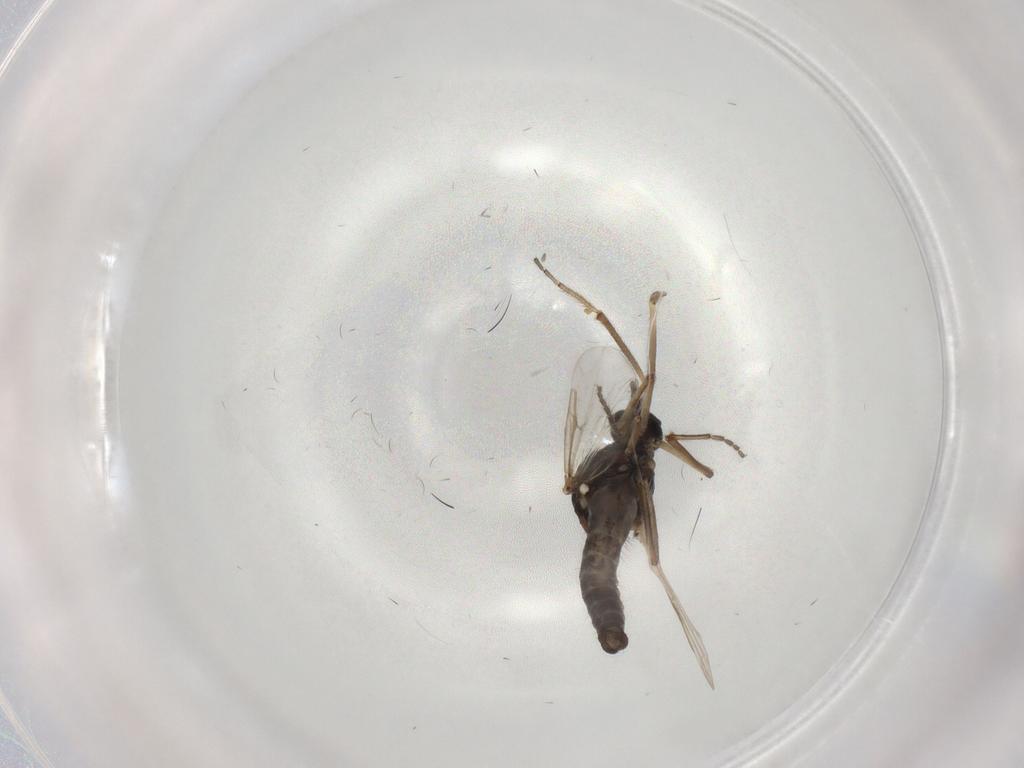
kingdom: Animalia
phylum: Arthropoda
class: Insecta
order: Diptera
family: Ceratopogonidae
